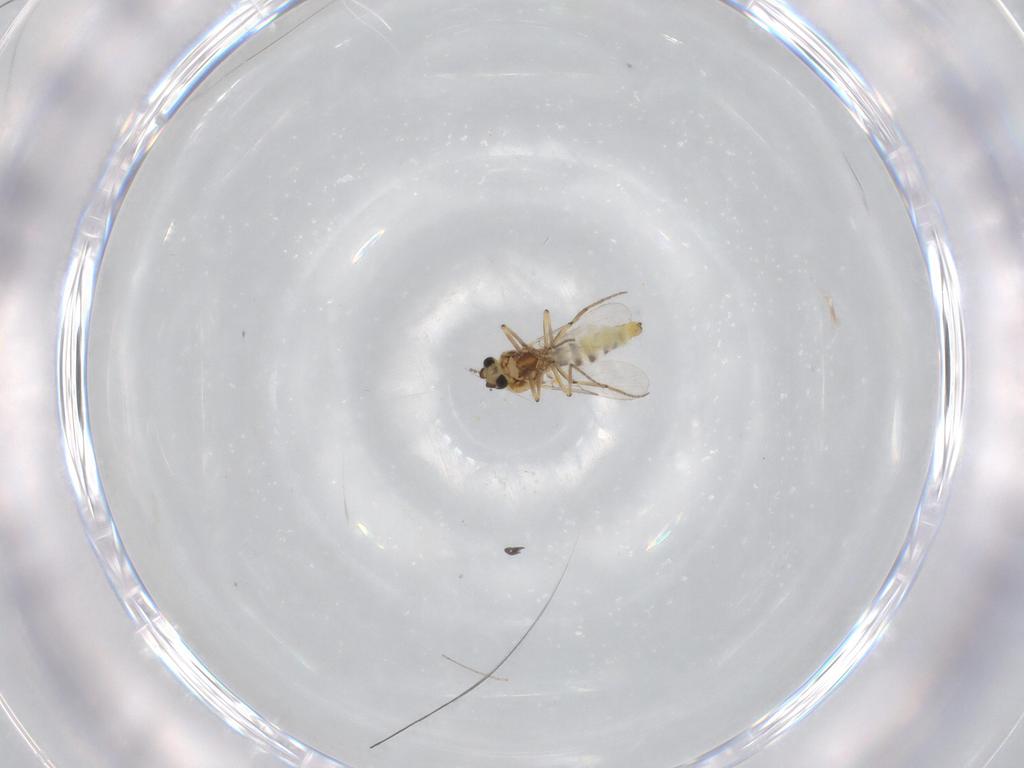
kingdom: Animalia
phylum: Arthropoda
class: Insecta
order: Diptera
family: Ceratopogonidae
